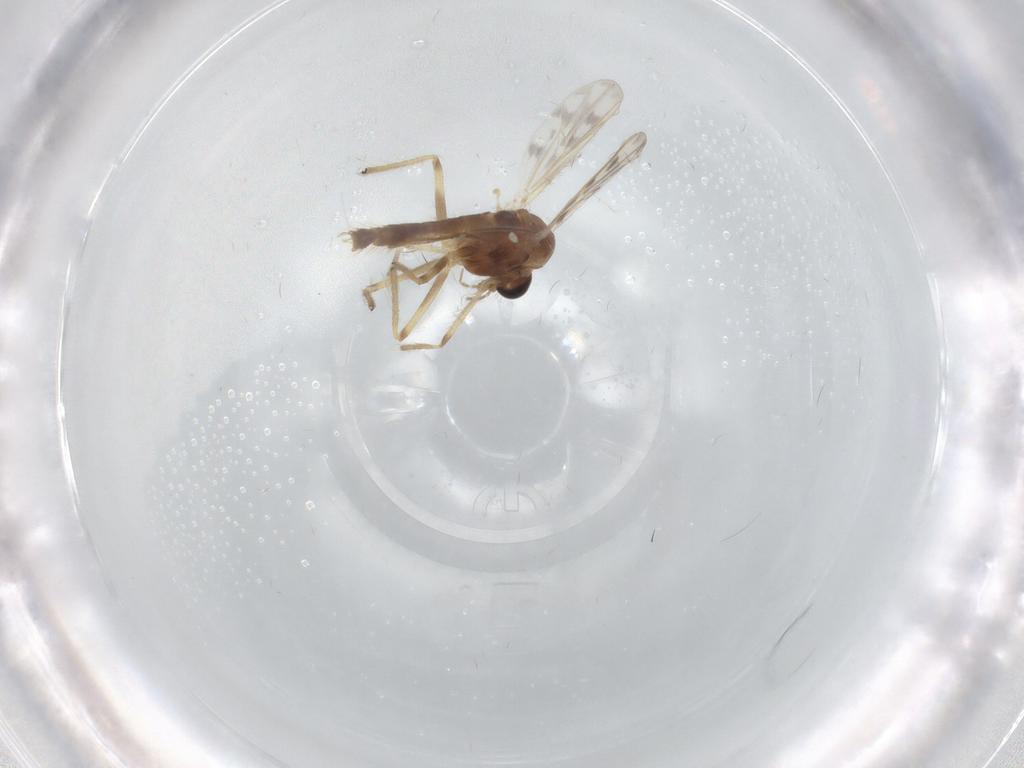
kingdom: Animalia
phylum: Arthropoda
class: Insecta
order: Diptera
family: Chironomidae
